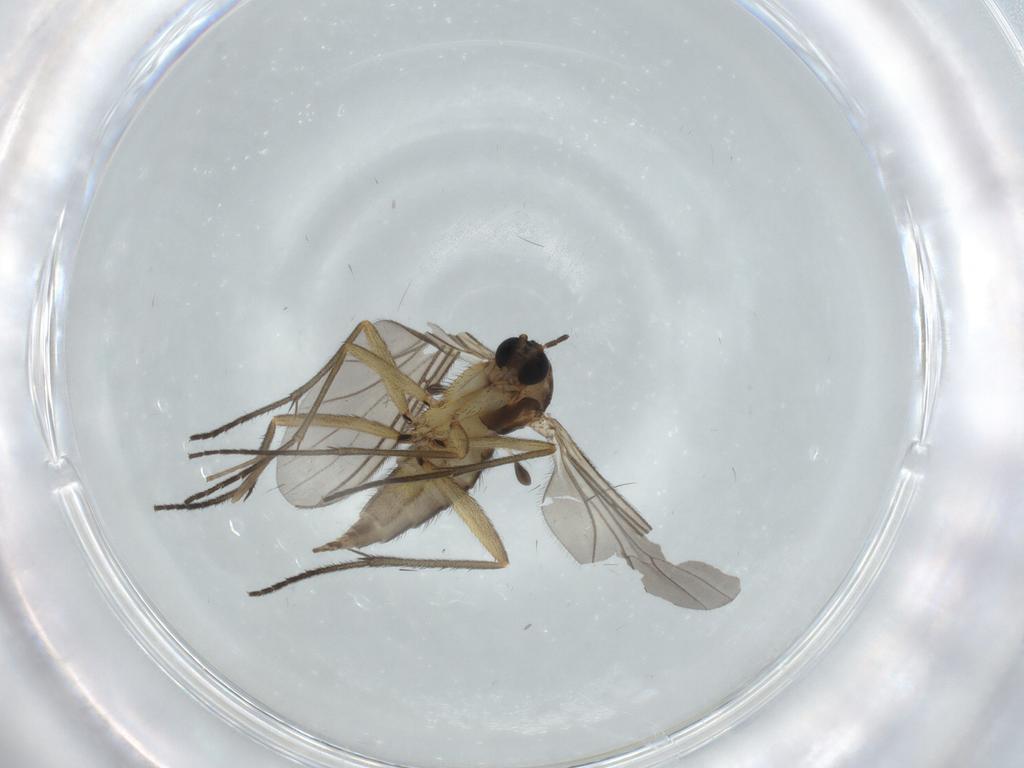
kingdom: Animalia
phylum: Arthropoda
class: Insecta
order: Diptera
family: Sciaridae
